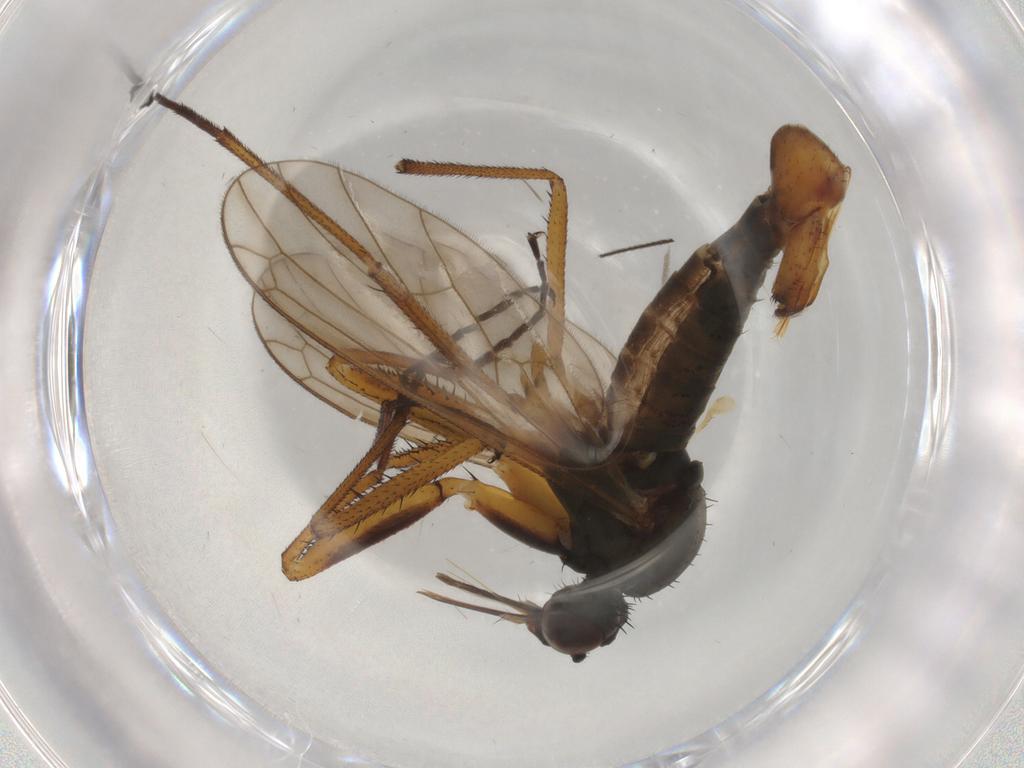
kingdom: Animalia
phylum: Arthropoda
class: Insecta
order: Diptera
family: Empididae
